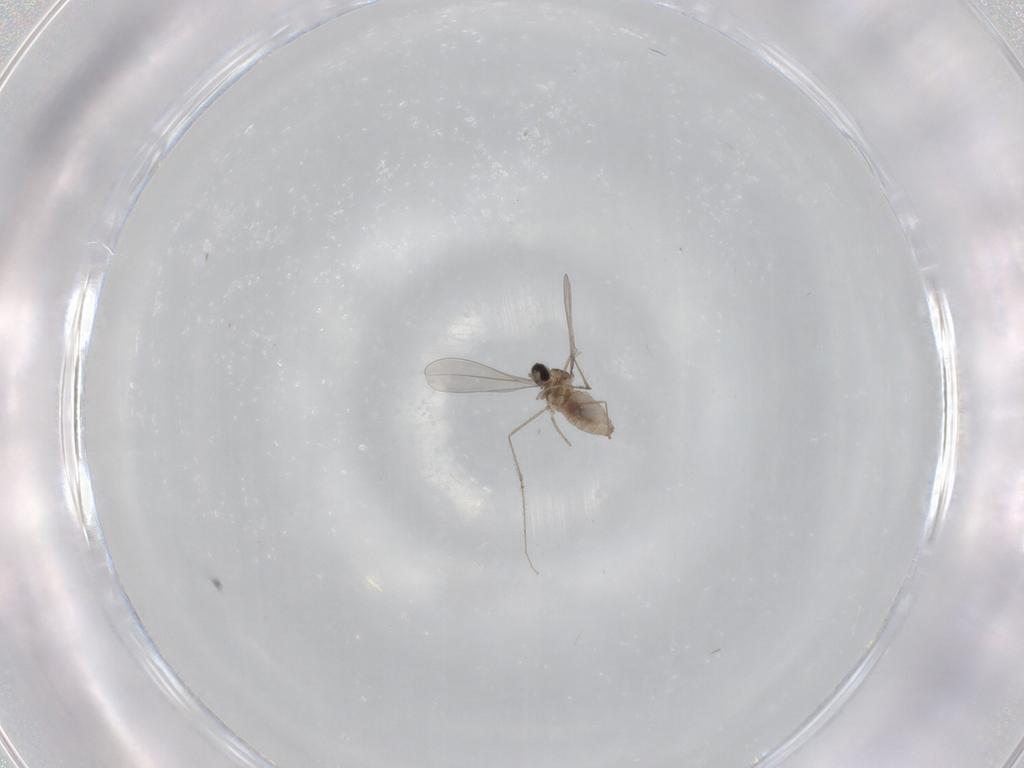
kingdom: Animalia
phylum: Arthropoda
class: Insecta
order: Diptera
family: Cecidomyiidae
